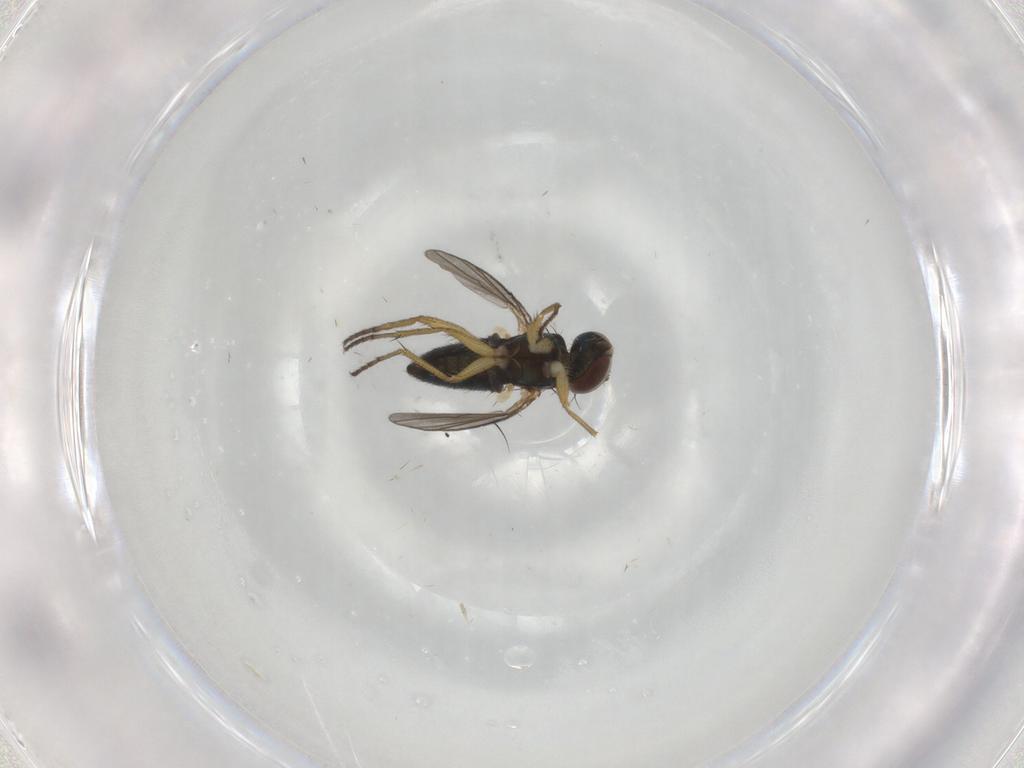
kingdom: Animalia
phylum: Arthropoda
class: Insecta
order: Diptera
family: Dolichopodidae
